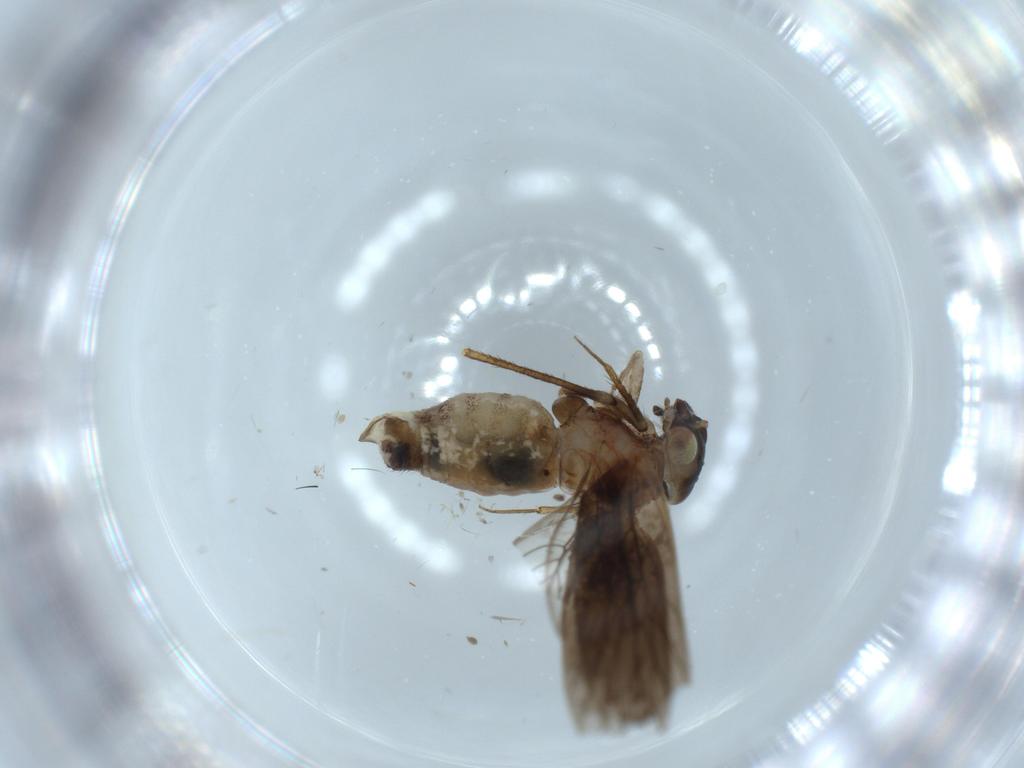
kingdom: Animalia
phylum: Arthropoda
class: Insecta
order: Psocodea
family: Lepidopsocidae
